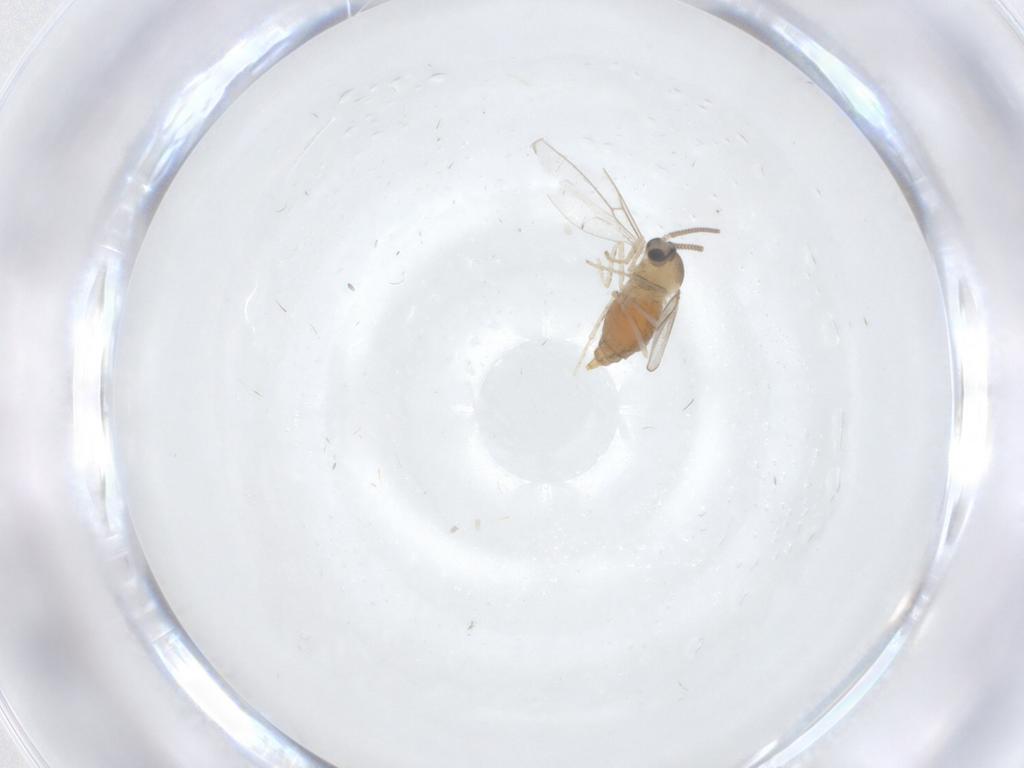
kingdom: Animalia
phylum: Arthropoda
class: Insecta
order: Diptera
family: Cecidomyiidae
